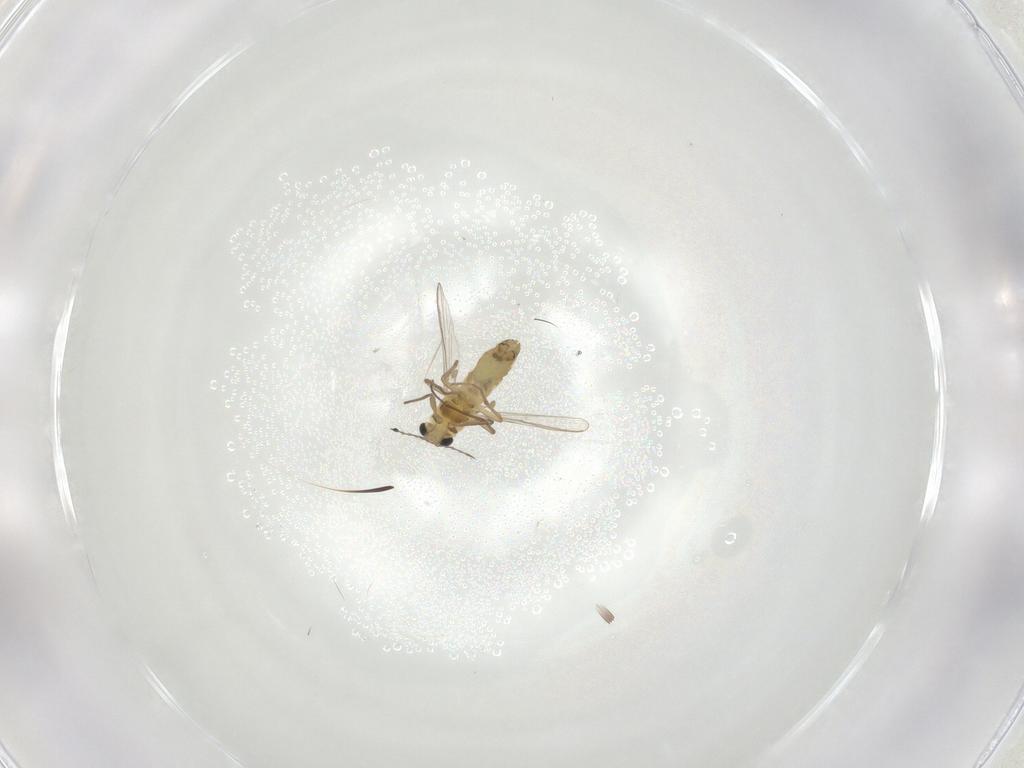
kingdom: Animalia
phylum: Arthropoda
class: Insecta
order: Diptera
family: Chironomidae
